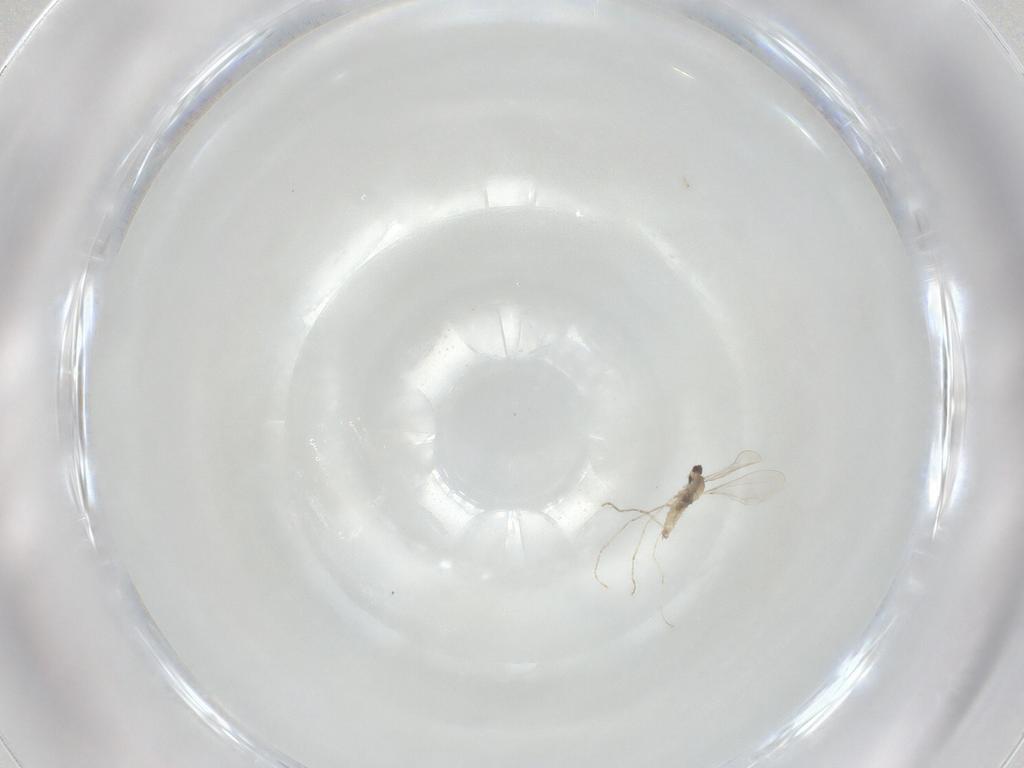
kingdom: Animalia
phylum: Arthropoda
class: Insecta
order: Diptera
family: Cecidomyiidae
